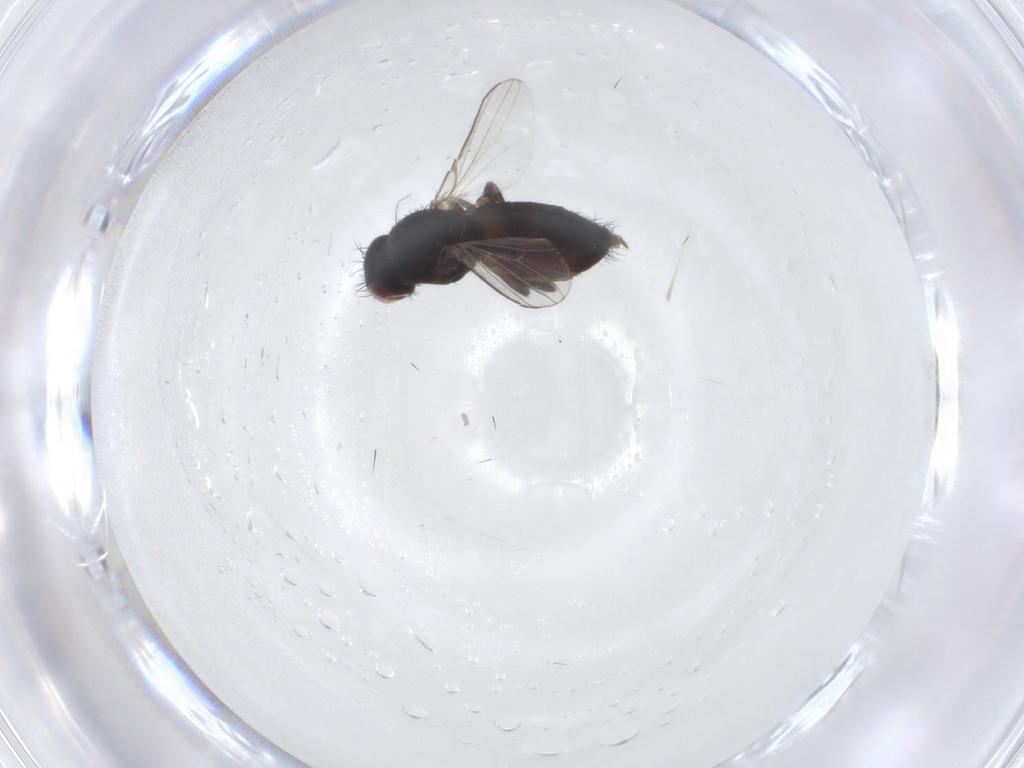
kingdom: Animalia
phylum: Arthropoda
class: Insecta
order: Diptera
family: Milichiidae
